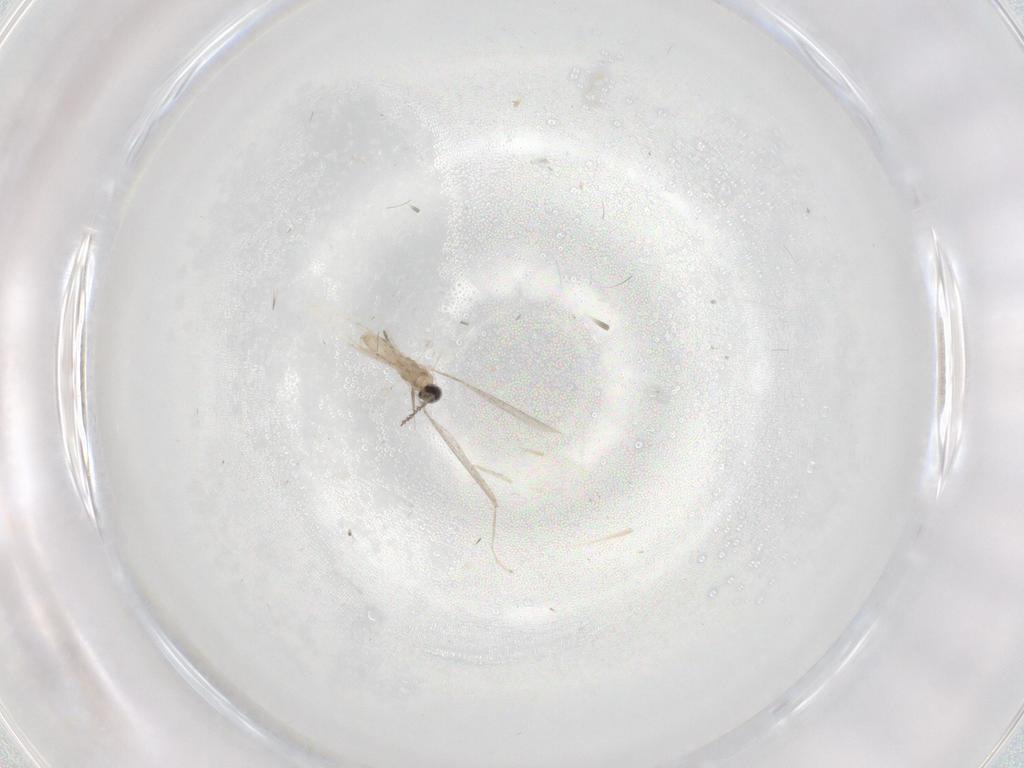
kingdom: Animalia
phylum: Arthropoda
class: Insecta
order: Diptera
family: Cecidomyiidae
